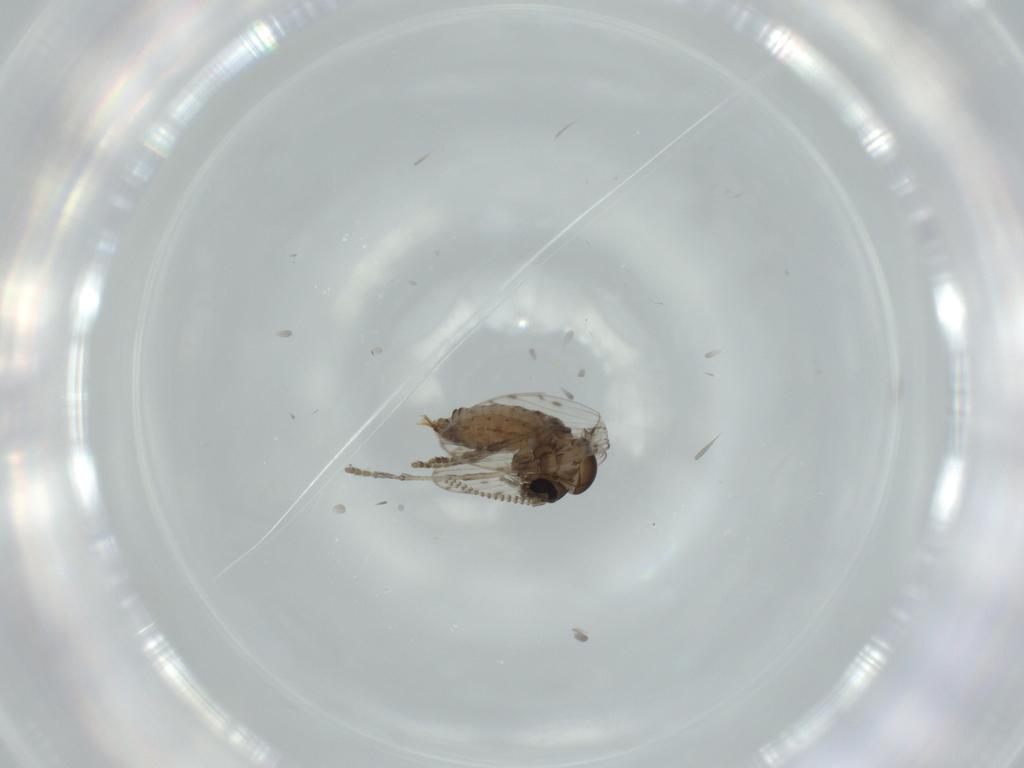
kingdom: Animalia
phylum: Arthropoda
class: Insecta
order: Diptera
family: Psychodidae
